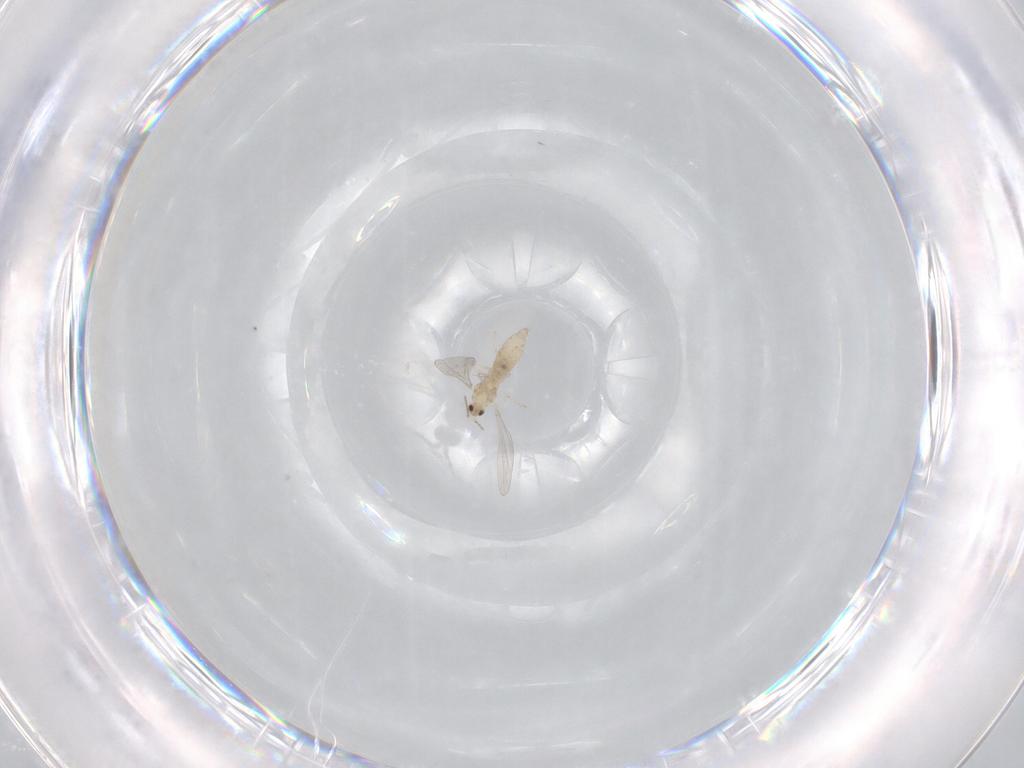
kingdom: Animalia
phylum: Arthropoda
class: Insecta
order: Diptera
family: Cecidomyiidae
